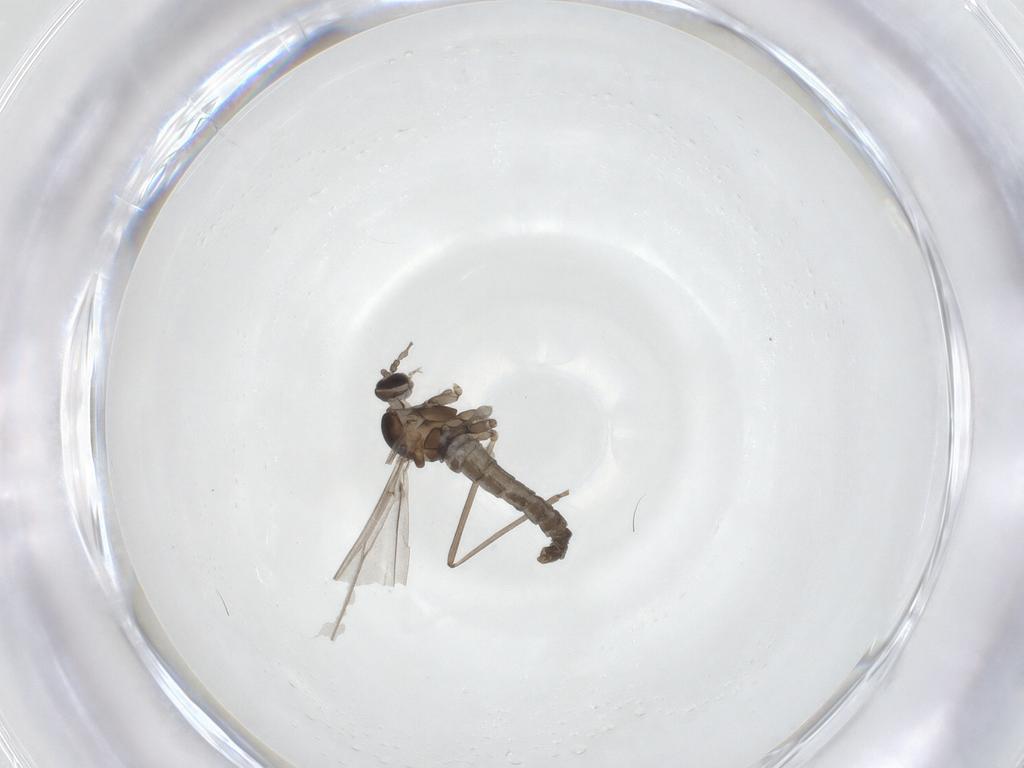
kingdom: Animalia
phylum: Arthropoda
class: Insecta
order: Diptera
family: Cecidomyiidae
